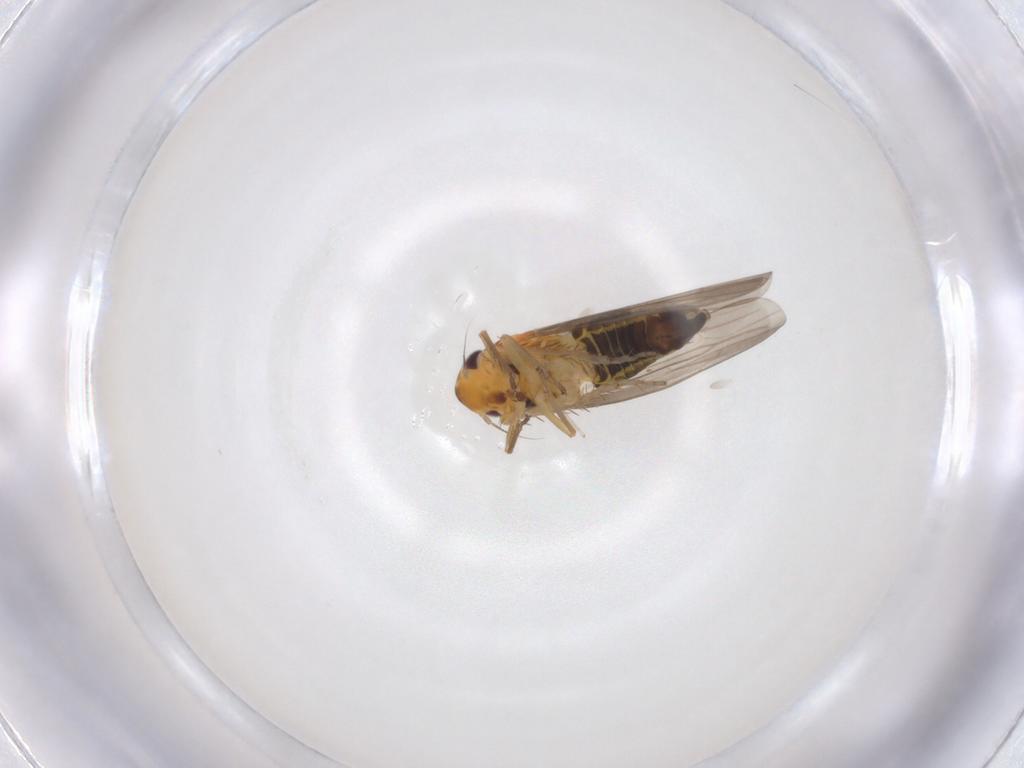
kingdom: Animalia
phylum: Arthropoda
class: Insecta
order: Hemiptera
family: Cicadellidae
